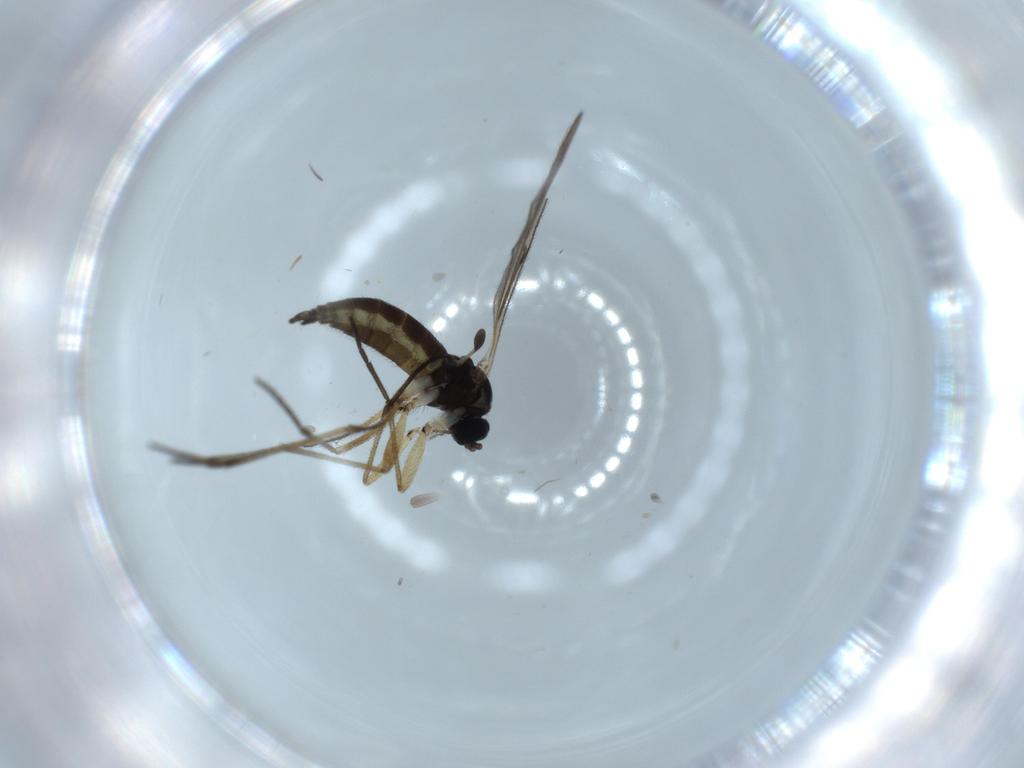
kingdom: Animalia
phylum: Arthropoda
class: Insecta
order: Diptera
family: Sciaridae
